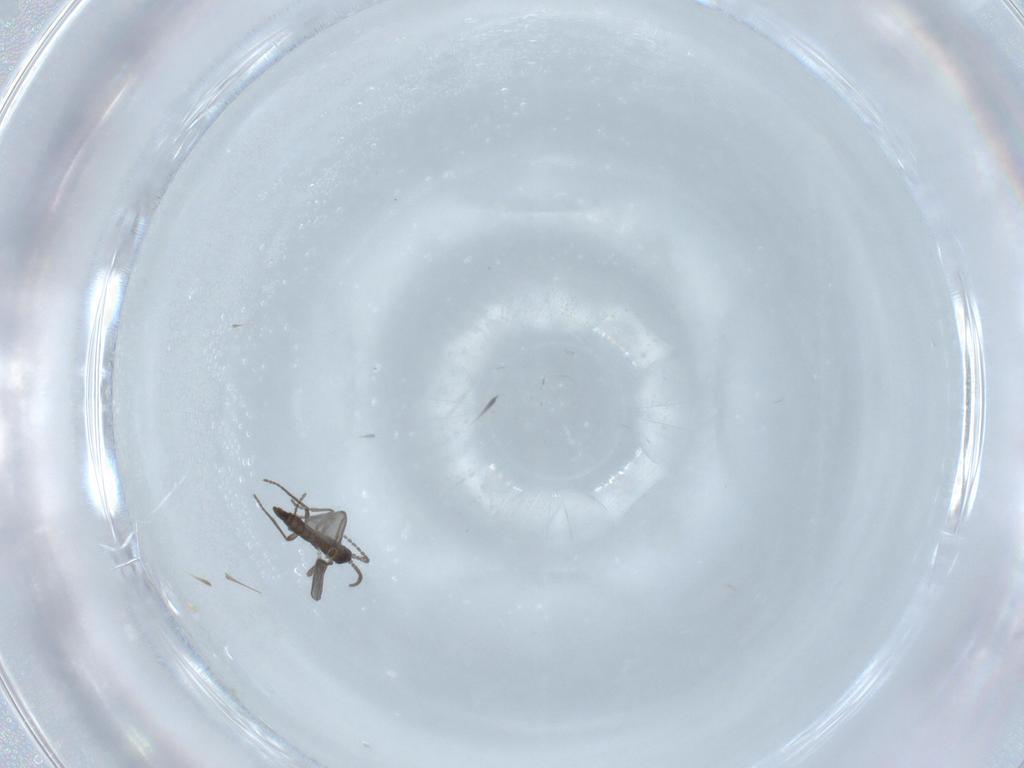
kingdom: Animalia
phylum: Arthropoda
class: Insecta
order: Diptera
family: Sciaridae
